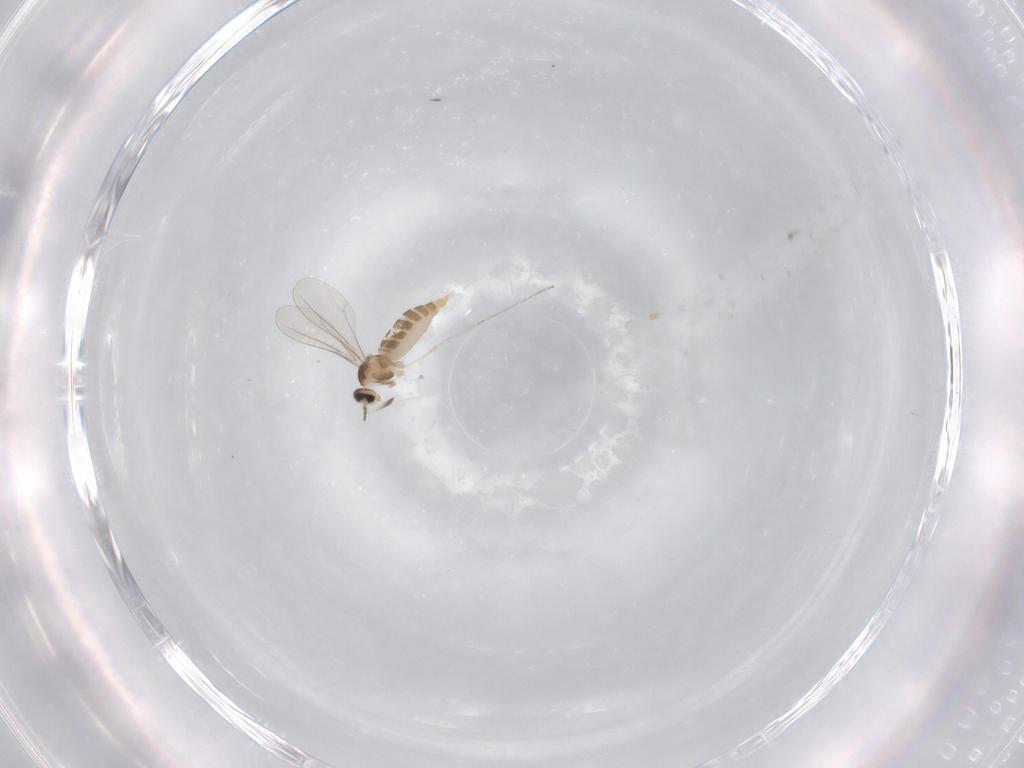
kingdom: Animalia
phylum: Arthropoda
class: Insecta
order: Diptera
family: Cecidomyiidae
